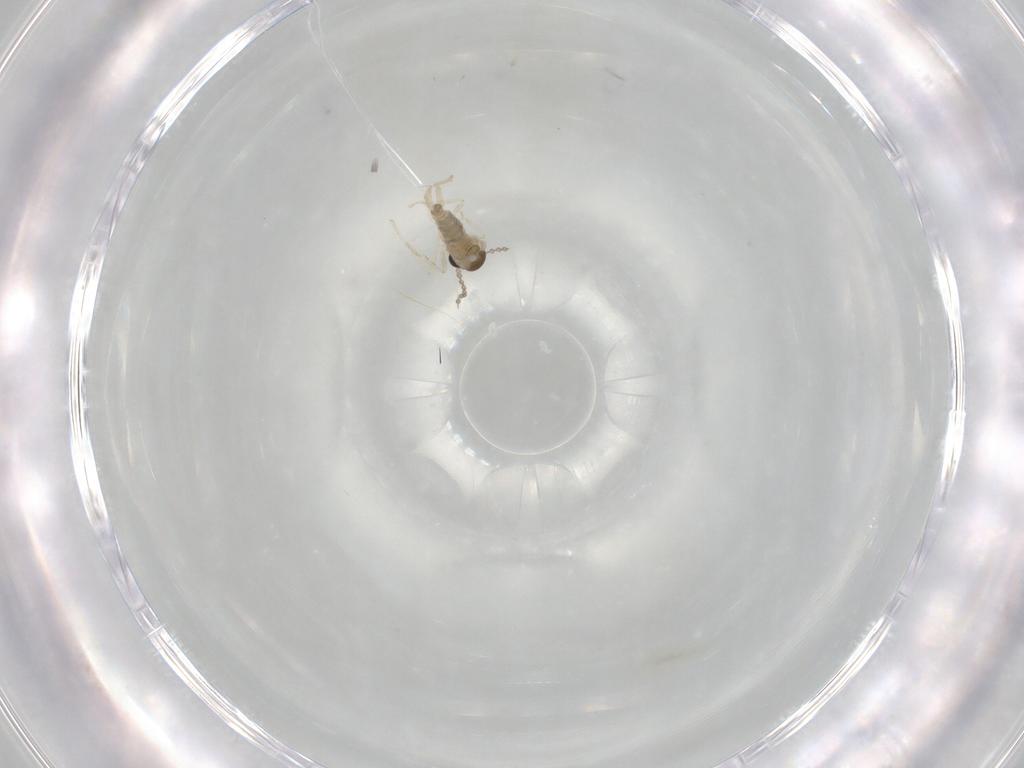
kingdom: Animalia
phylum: Arthropoda
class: Insecta
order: Diptera
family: Cecidomyiidae
